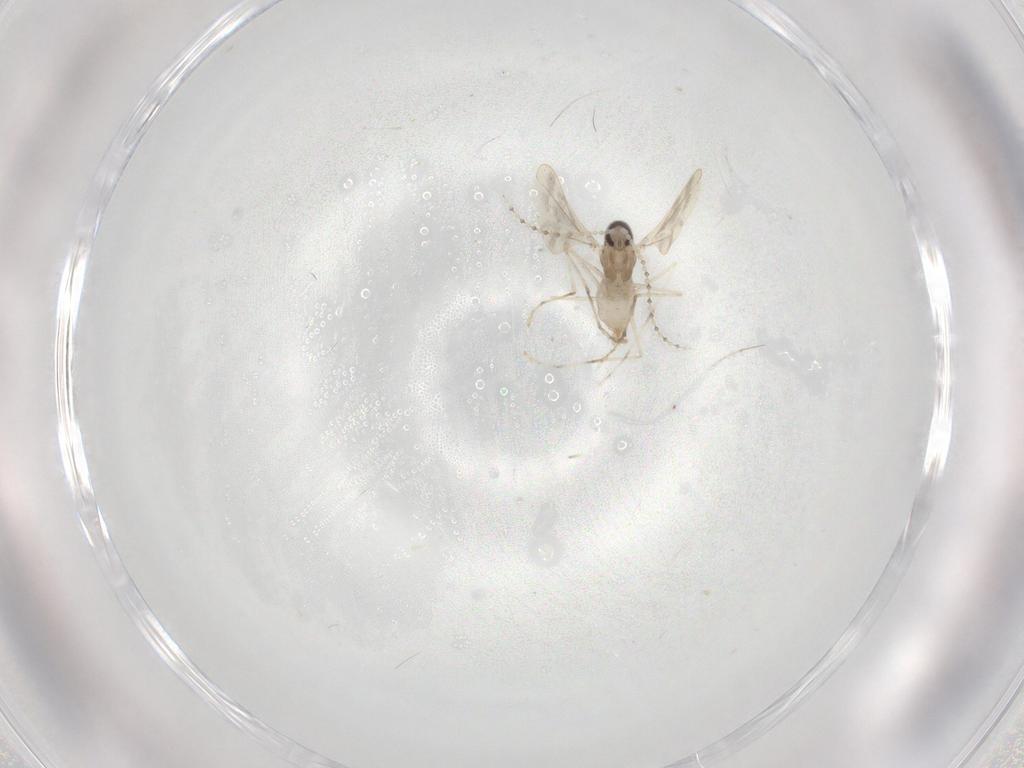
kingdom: Animalia
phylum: Arthropoda
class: Insecta
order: Diptera
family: Cecidomyiidae
